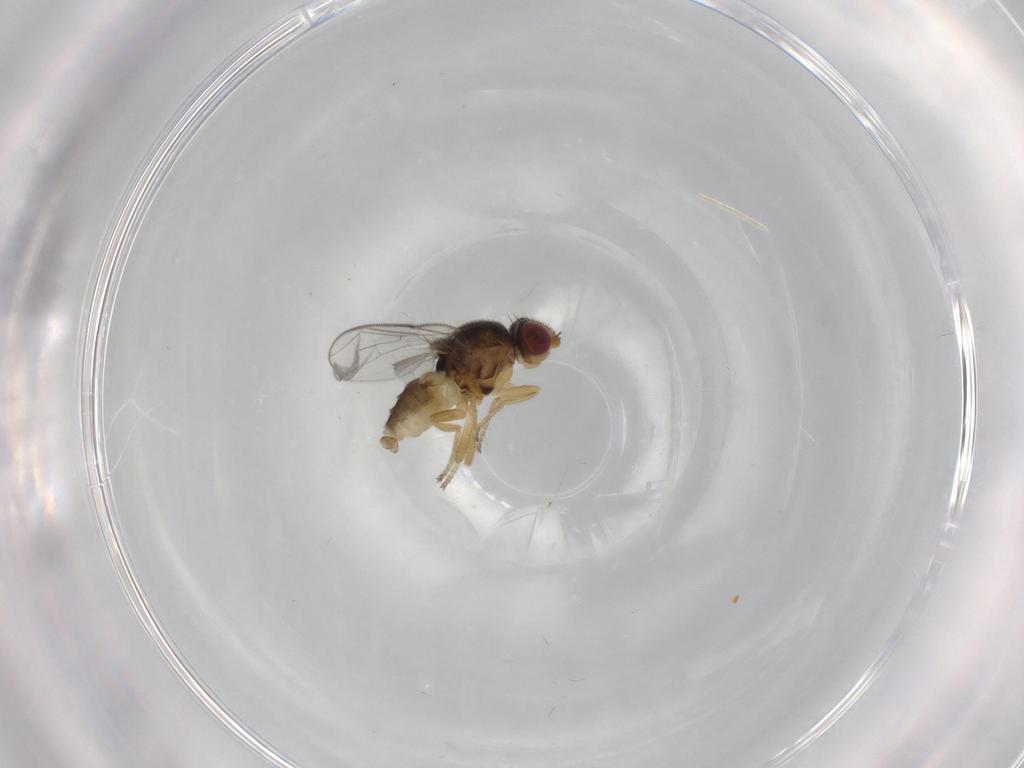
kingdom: Animalia
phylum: Arthropoda
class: Insecta
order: Diptera
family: Chloropidae
